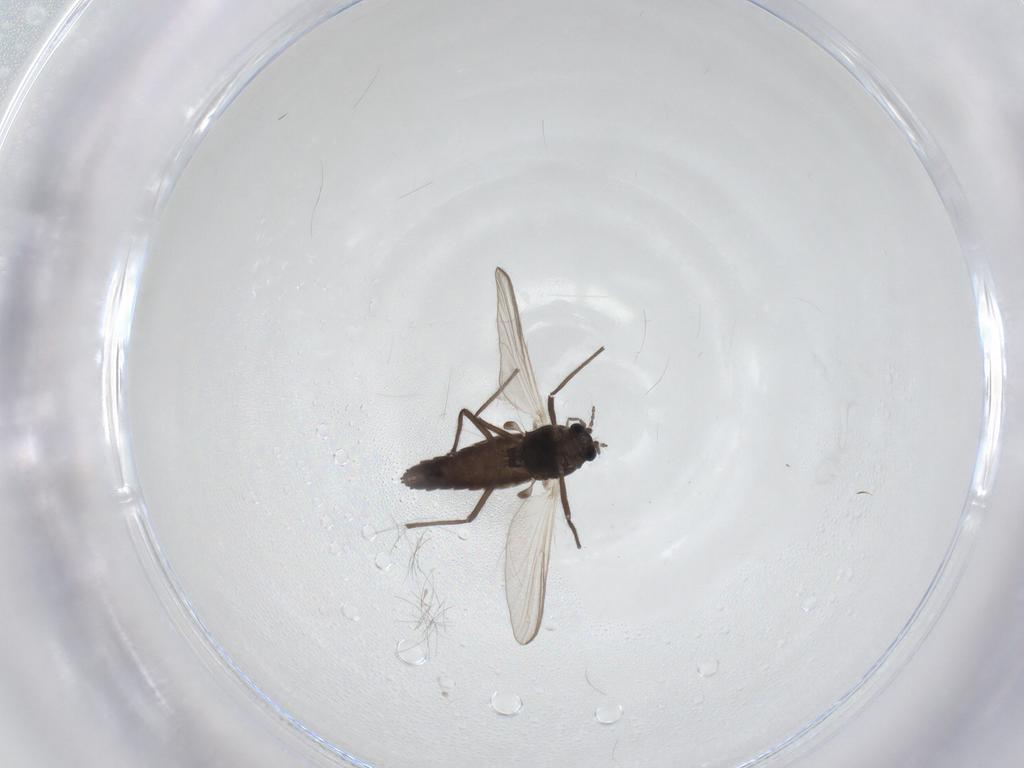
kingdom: Animalia
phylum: Arthropoda
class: Insecta
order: Diptera
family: Chironomidae
